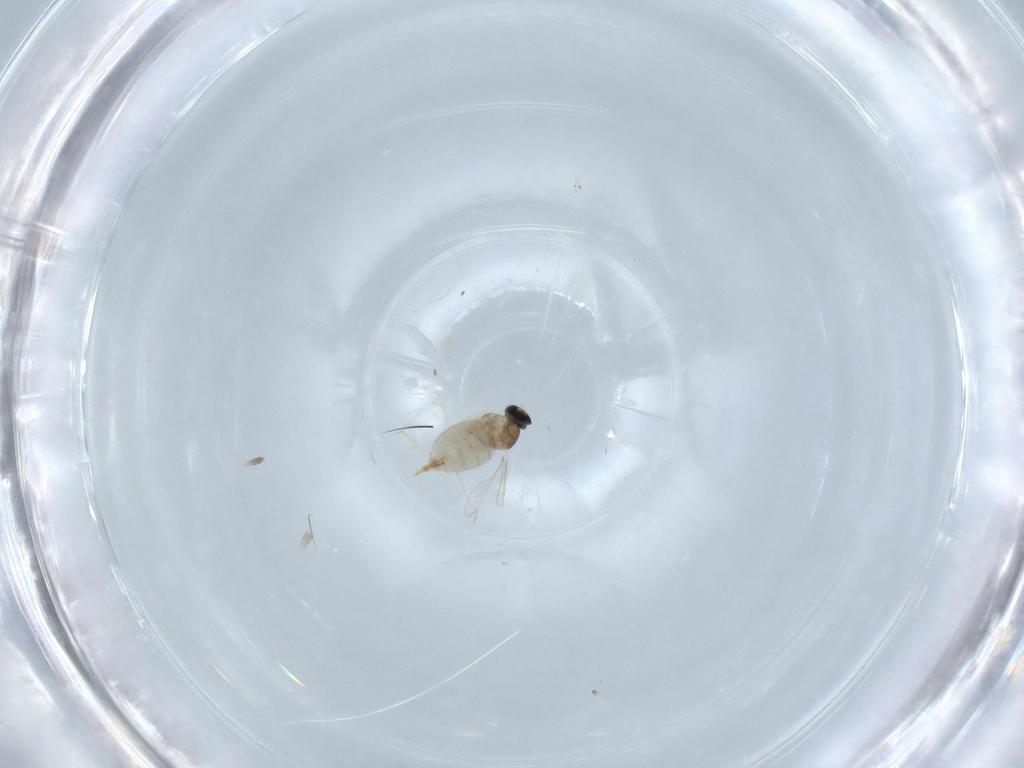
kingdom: Animalia
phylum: Arthropoda
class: Insecta
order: Diptera
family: Cecidomyiidae
